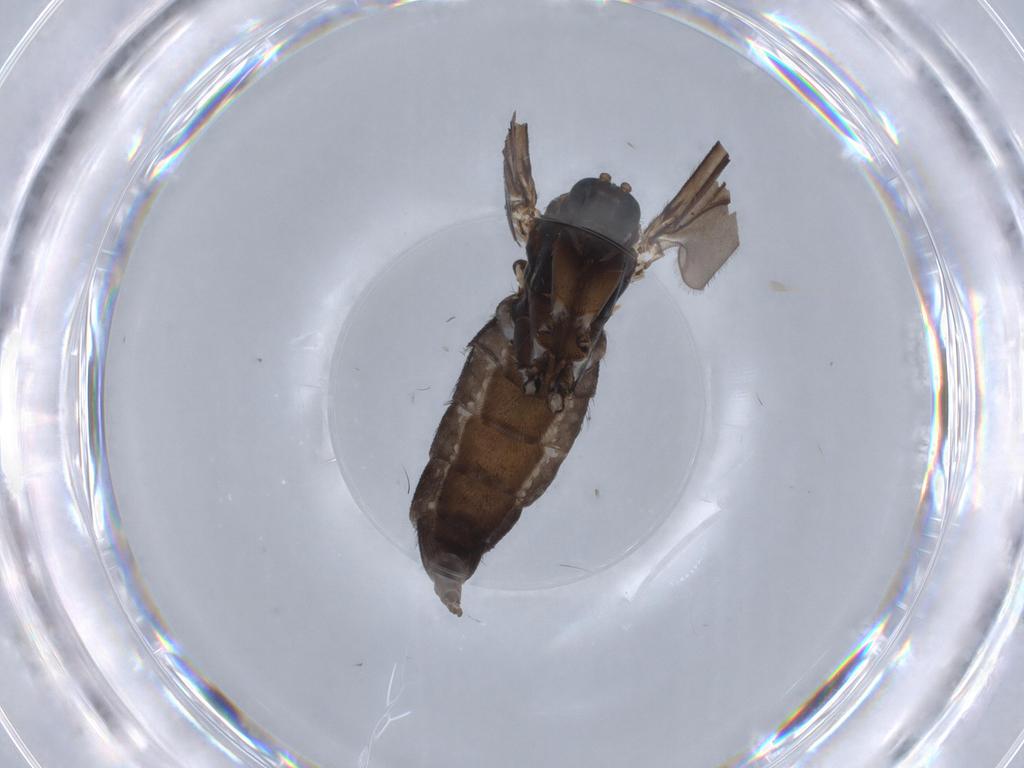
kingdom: Animalia
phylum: Arthropoda
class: Insecta
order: Diptera
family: Sciaridae
